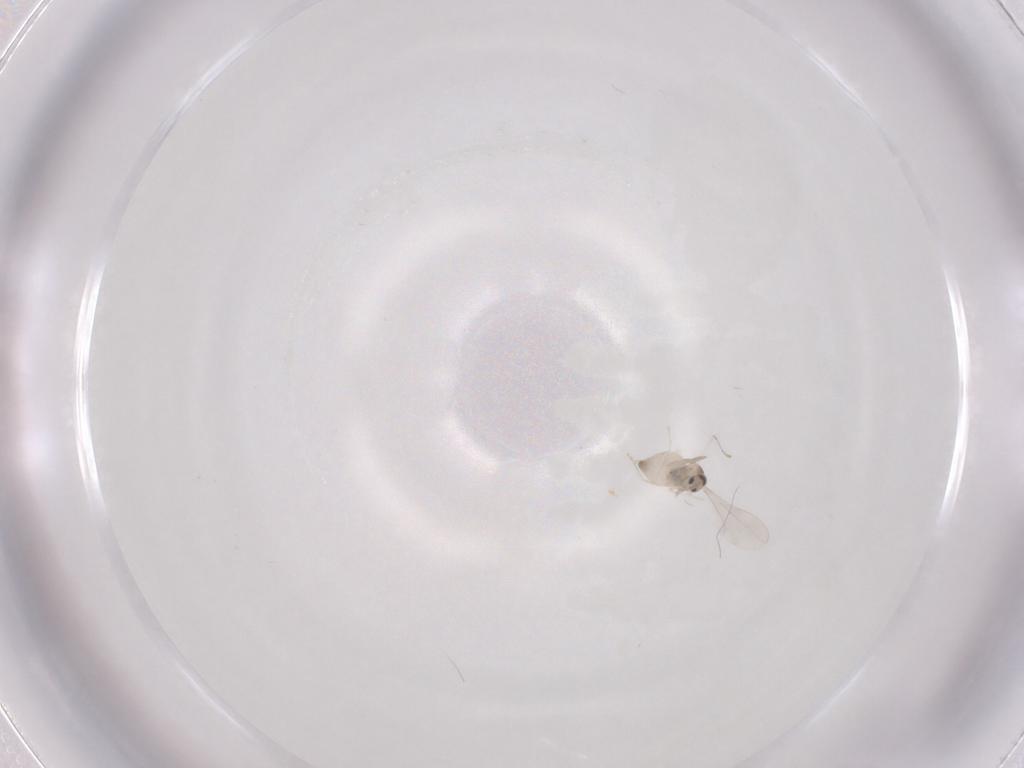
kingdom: Animalia
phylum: Arthropoda
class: Insecta
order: Diptera
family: Cecidomyiidae
